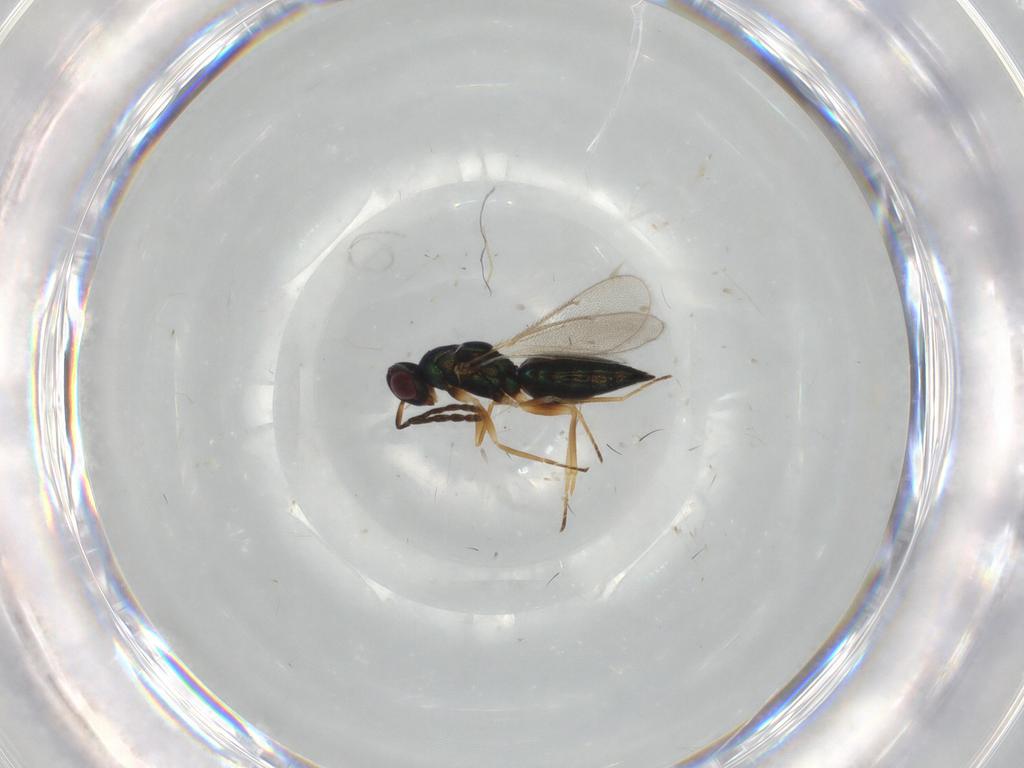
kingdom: Animalia
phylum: Arthropoda
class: Insecta
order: Hymenoptera
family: Eulophidae
